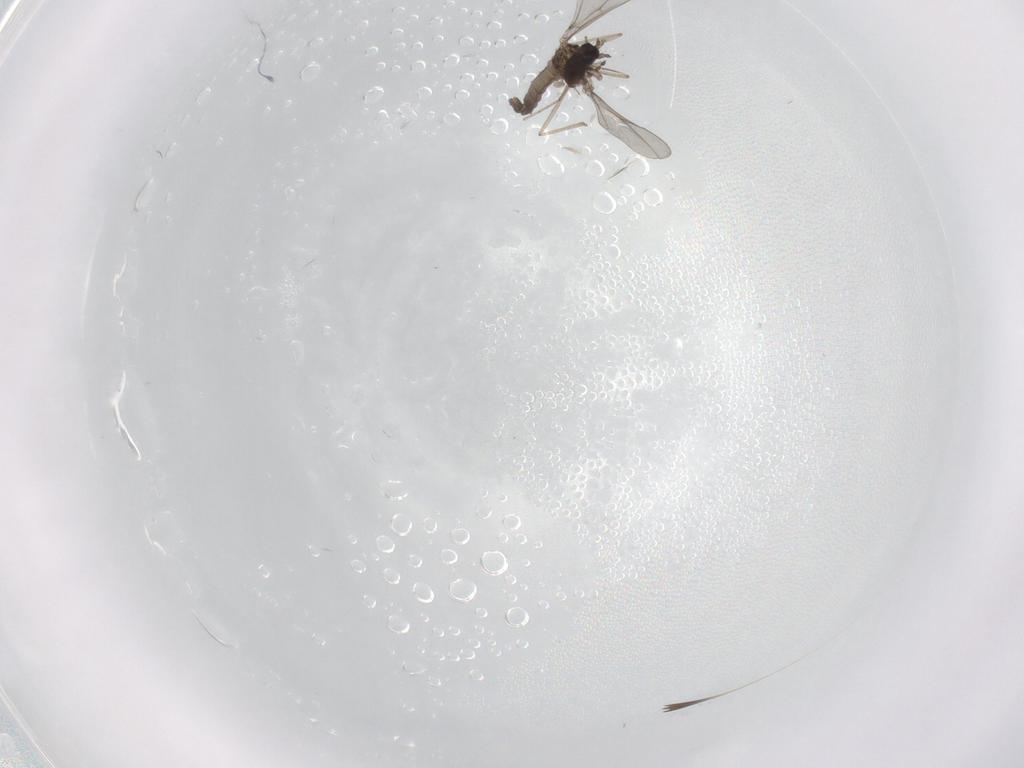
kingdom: Animalia
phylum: Arthropoda
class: Insecta
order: Diptera
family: Cecidomyiidae
